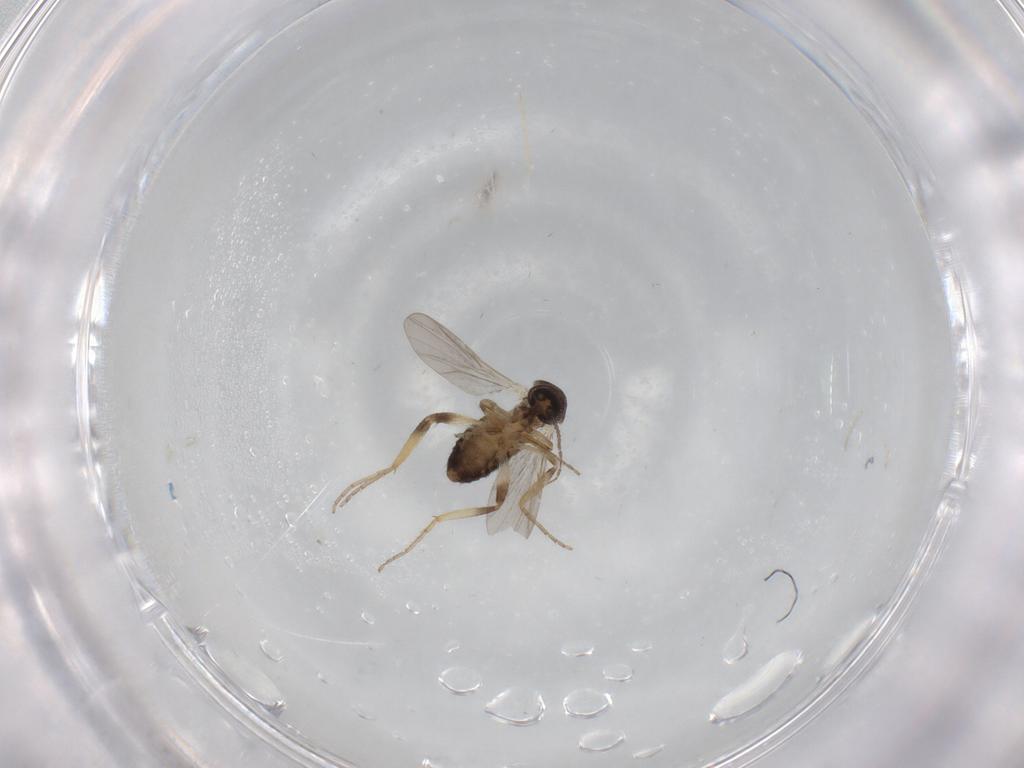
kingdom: Animalia
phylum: Arthropoda
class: Insecta
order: Diptera
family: Ceratopogonidae
